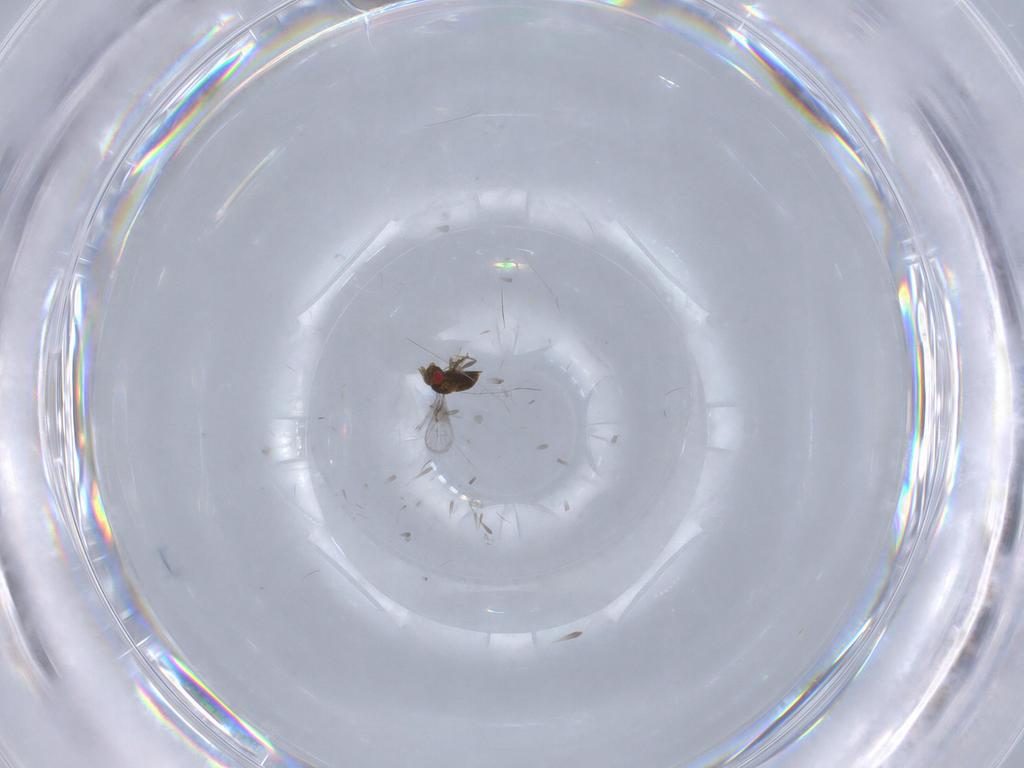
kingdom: Animalia
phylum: Arthropoda
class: Insecta
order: Hymenoptera
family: Trichogrammatidae
